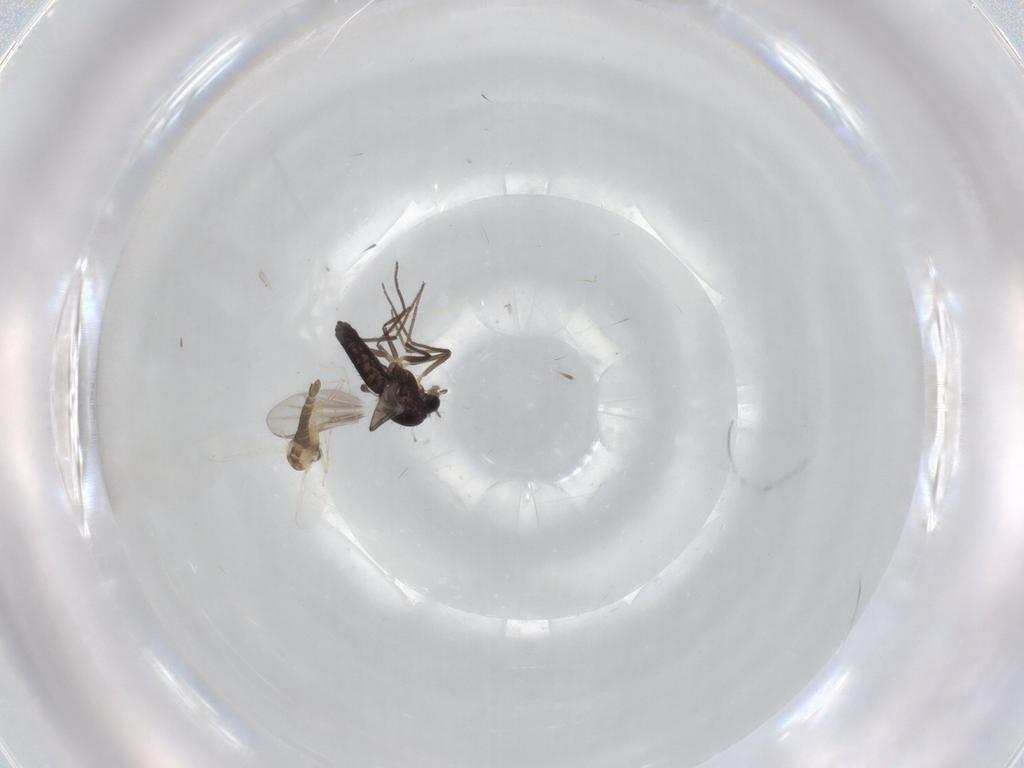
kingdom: Animalia
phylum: Arthropoda
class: Insecta
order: Diptera
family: Chironomidae
